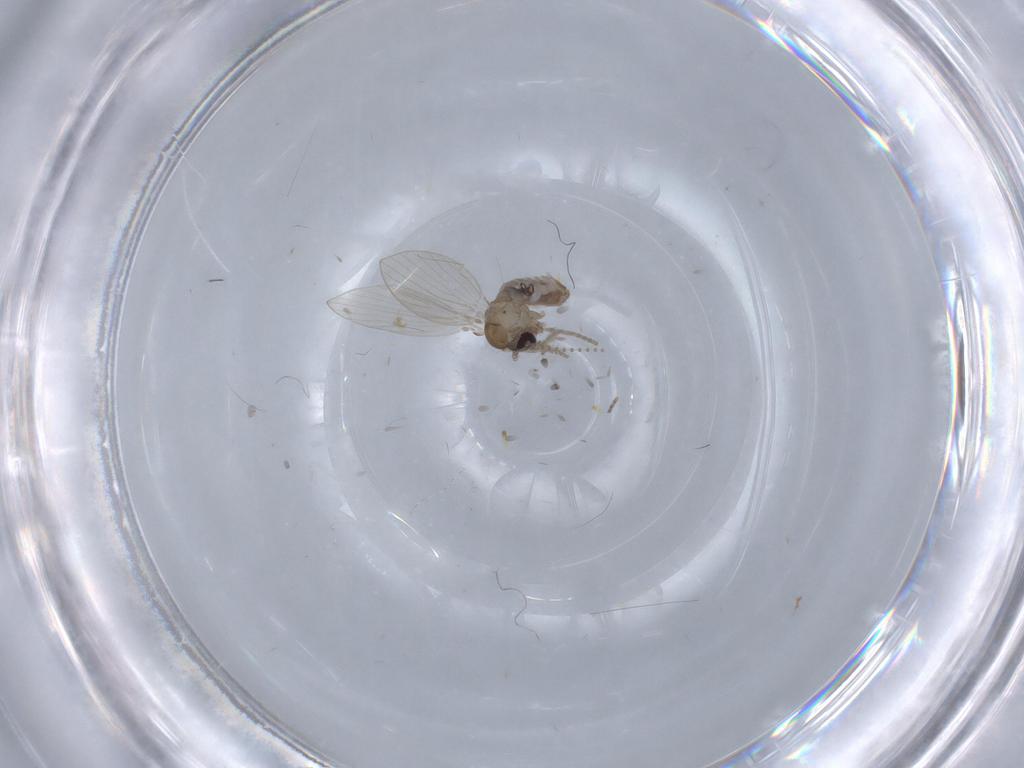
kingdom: Animalia
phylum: Arthropoda
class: Insecta
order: Diptera
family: Psychodidae
